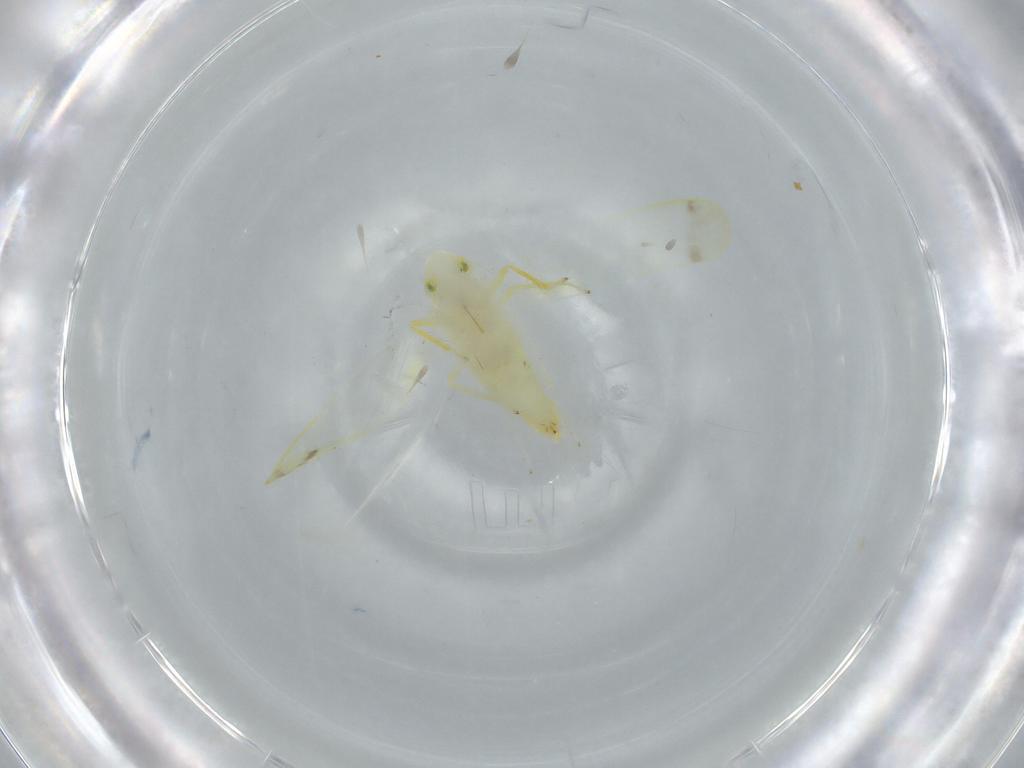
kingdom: Animalia
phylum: Arthropoda
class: Insecta
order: Hemiptera
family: Cicadellidae
